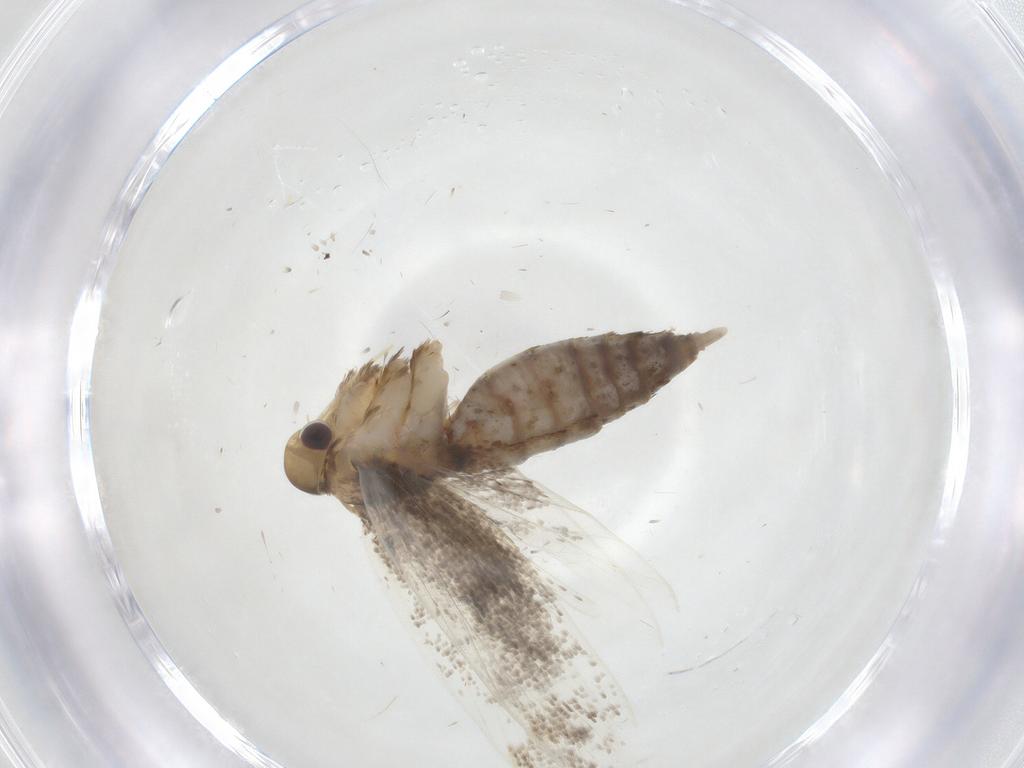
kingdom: Animalia
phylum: Arthropoda
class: Insecta
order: Lepidoptera
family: Lecithoceridae
